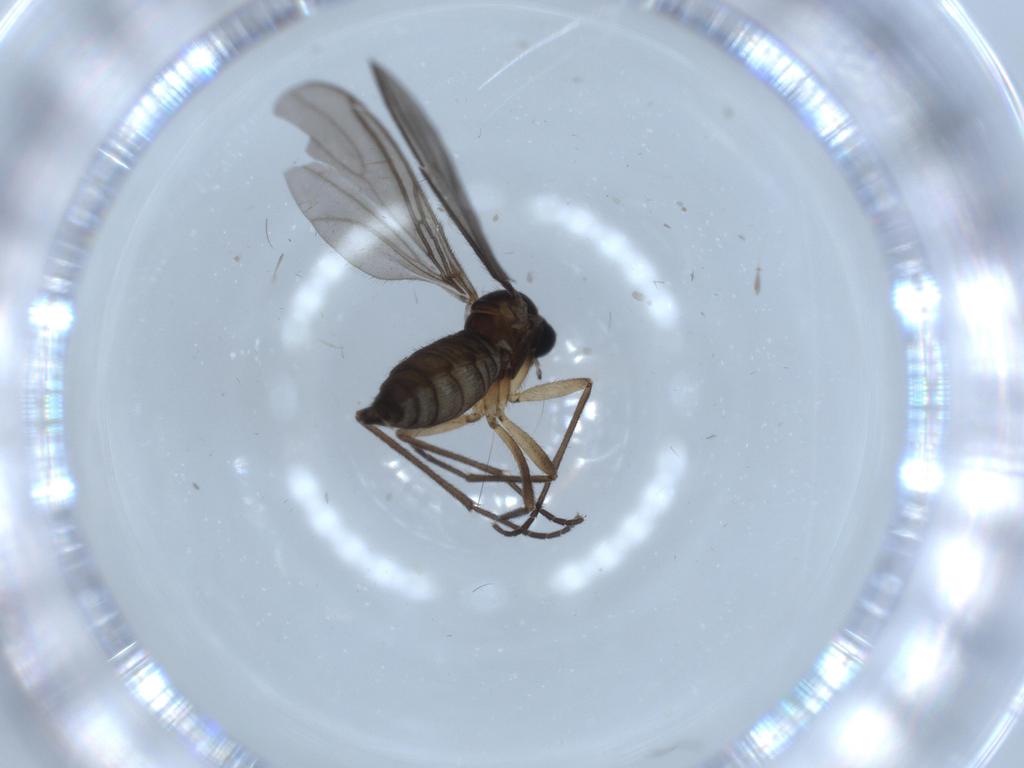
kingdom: Animalia
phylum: Arthropoda
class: Insecta
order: Diptera
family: Sciaridae
